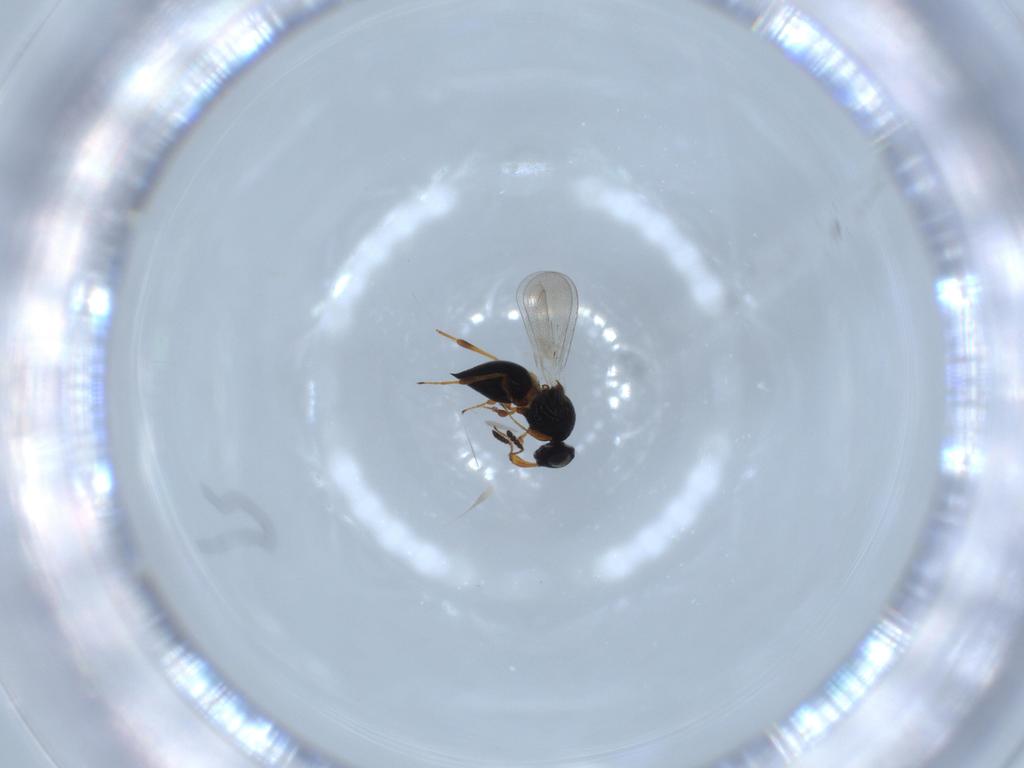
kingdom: Animalia
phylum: Arthropoda
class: Insecta
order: Hymenoptera
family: Platygastridae
